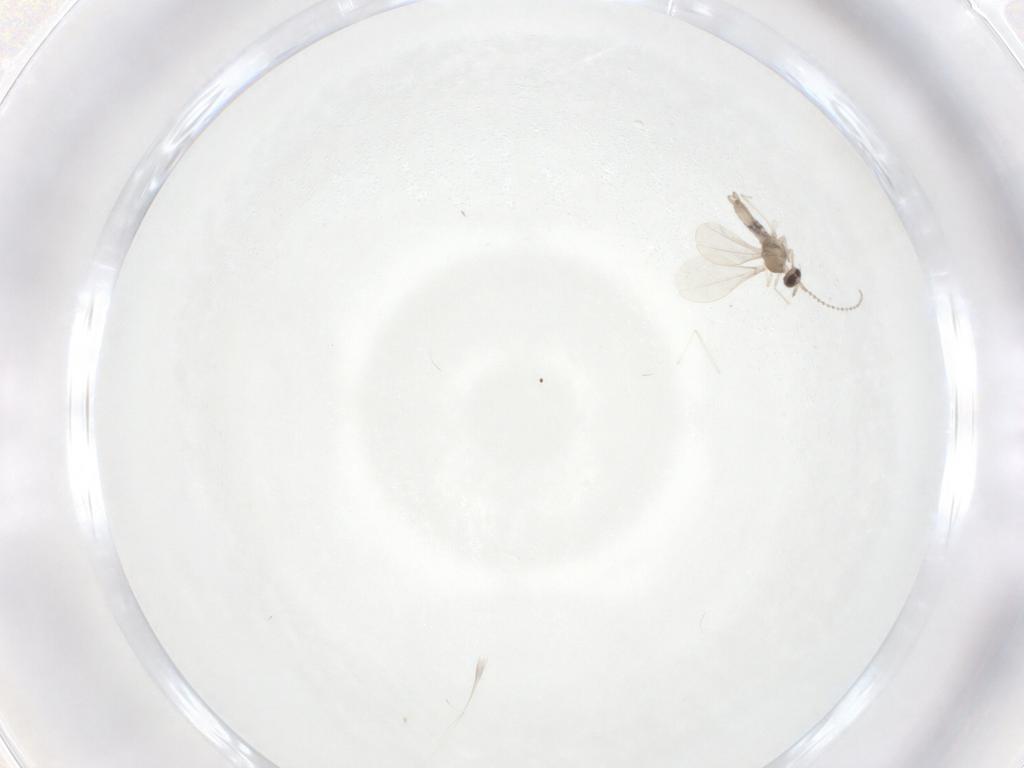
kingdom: Animalia
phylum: Arthropoda
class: Insecta
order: Diptera
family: Cecidomyiidae
